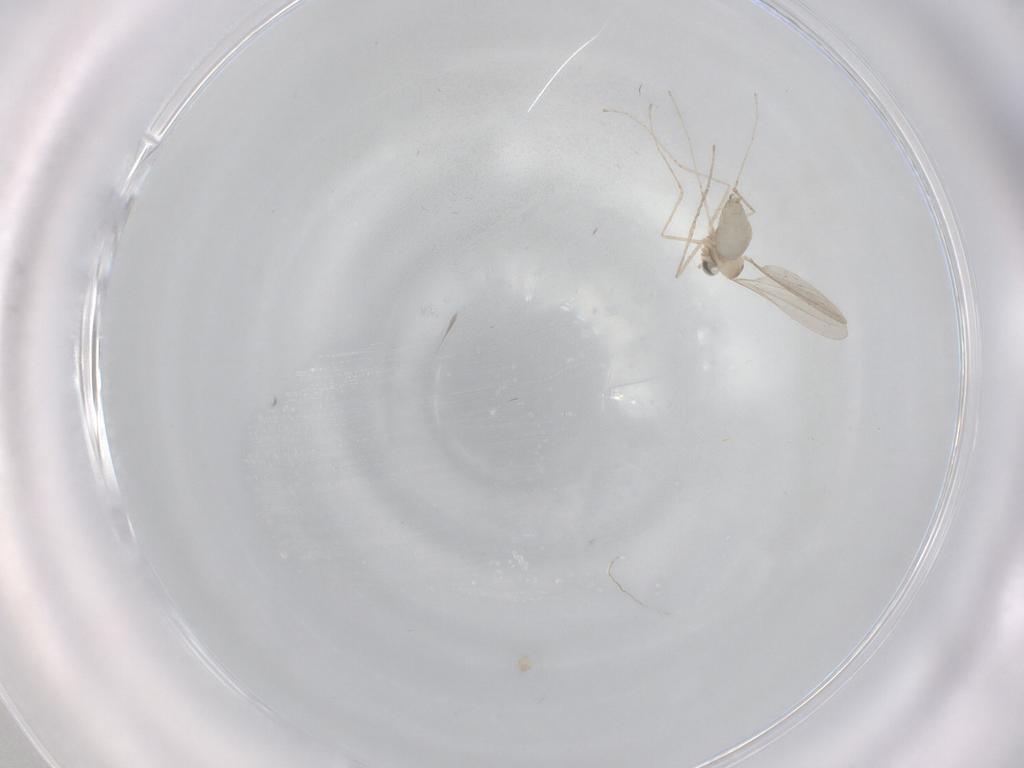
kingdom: Animalia
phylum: Arthropoda
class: Insecta
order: Diptera
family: Cecidomyiidae
